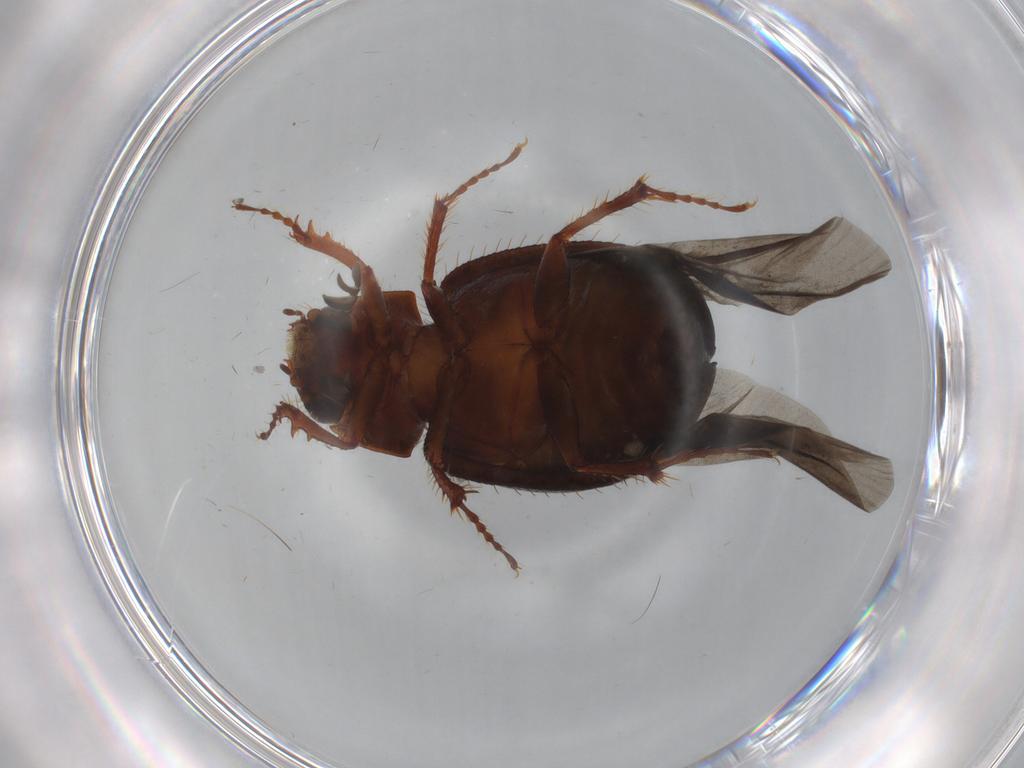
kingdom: Animalia
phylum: Arthropoda
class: Insecta
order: Coleoptera
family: Hybosoridae
